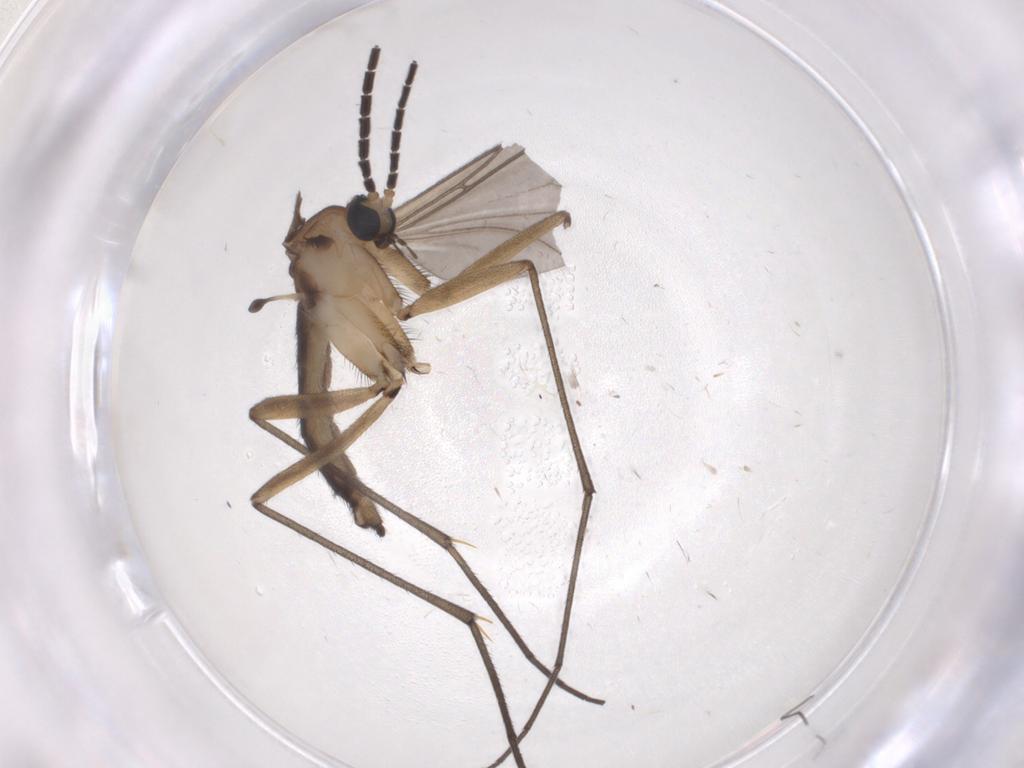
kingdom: Animalia
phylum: Arthropoda
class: Insecta
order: Diptera
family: Sciaridae
